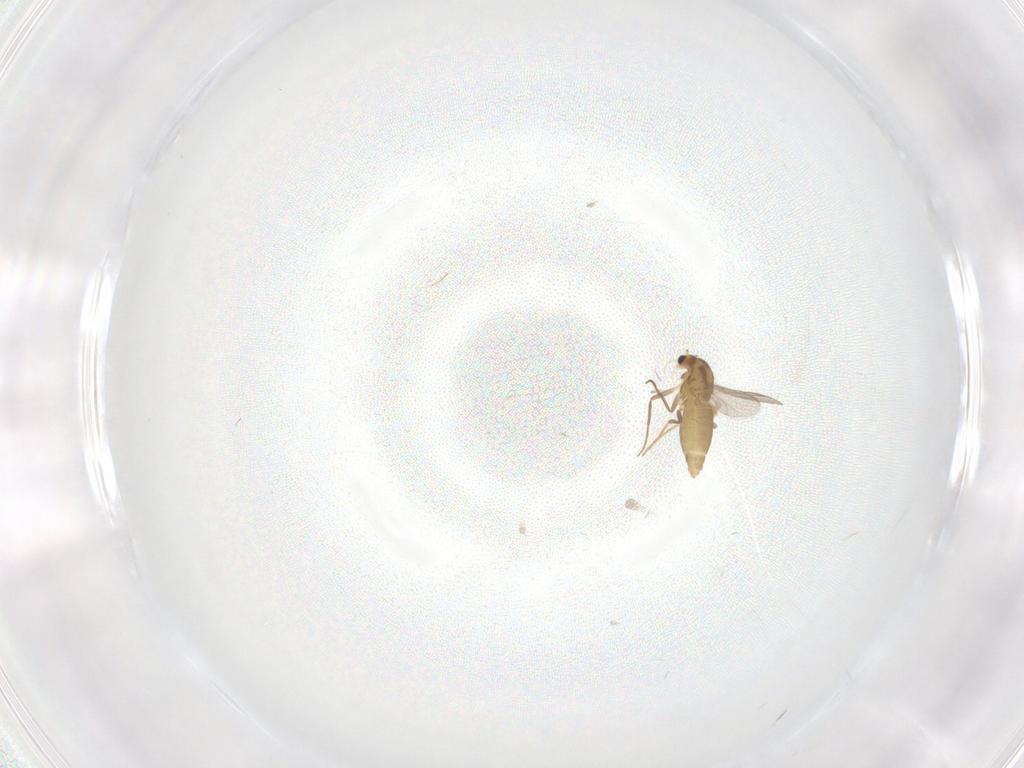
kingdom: Animalia
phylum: Arthropoda
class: Insecta
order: Diptera
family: Chironomidae
